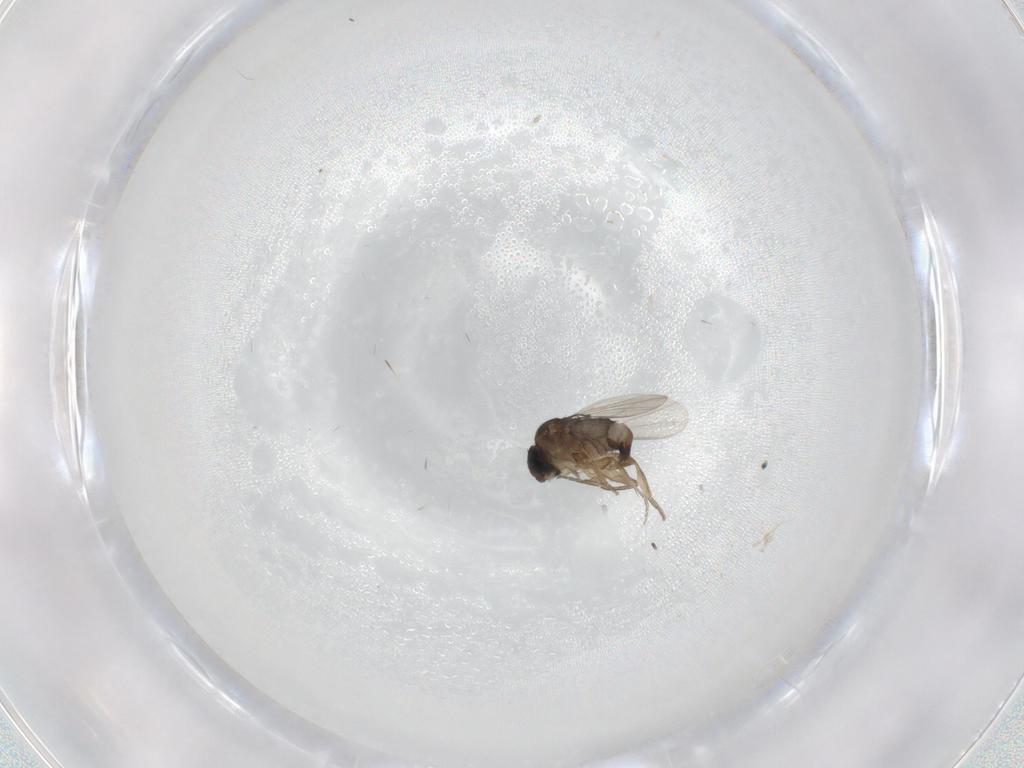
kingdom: Animalia
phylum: Arthropoda
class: Insecta
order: Diptera
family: Phoridae
